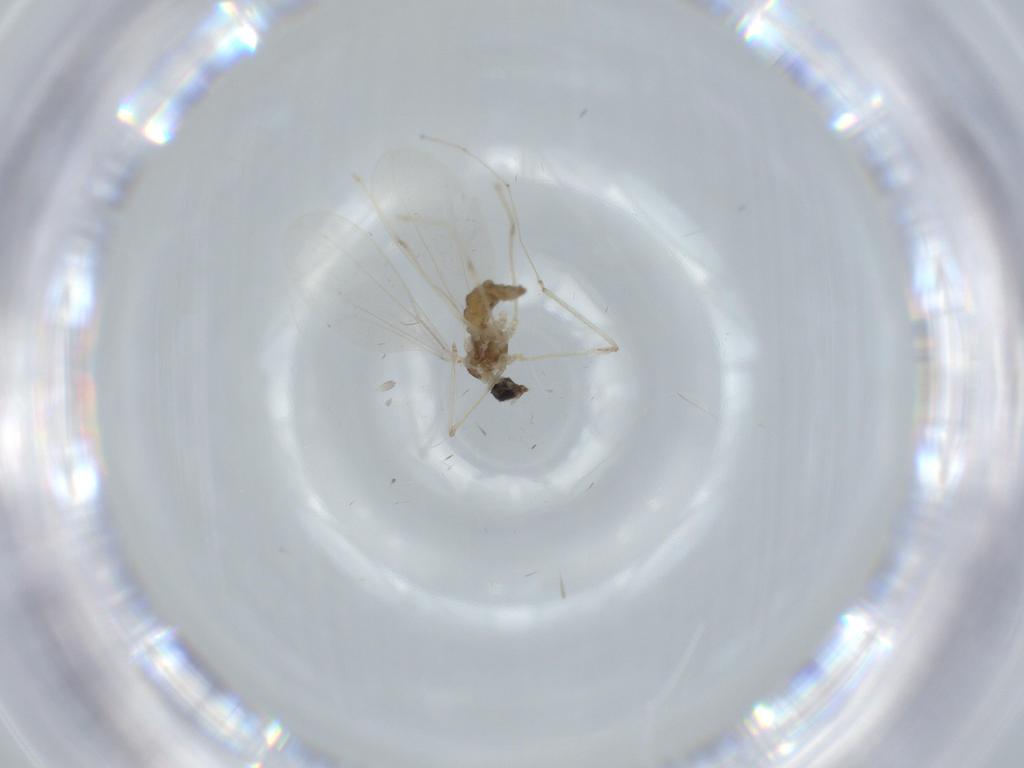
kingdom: Animalia
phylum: Arthropoda
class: Insecta
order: Diptera
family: Cecidomyiidae
